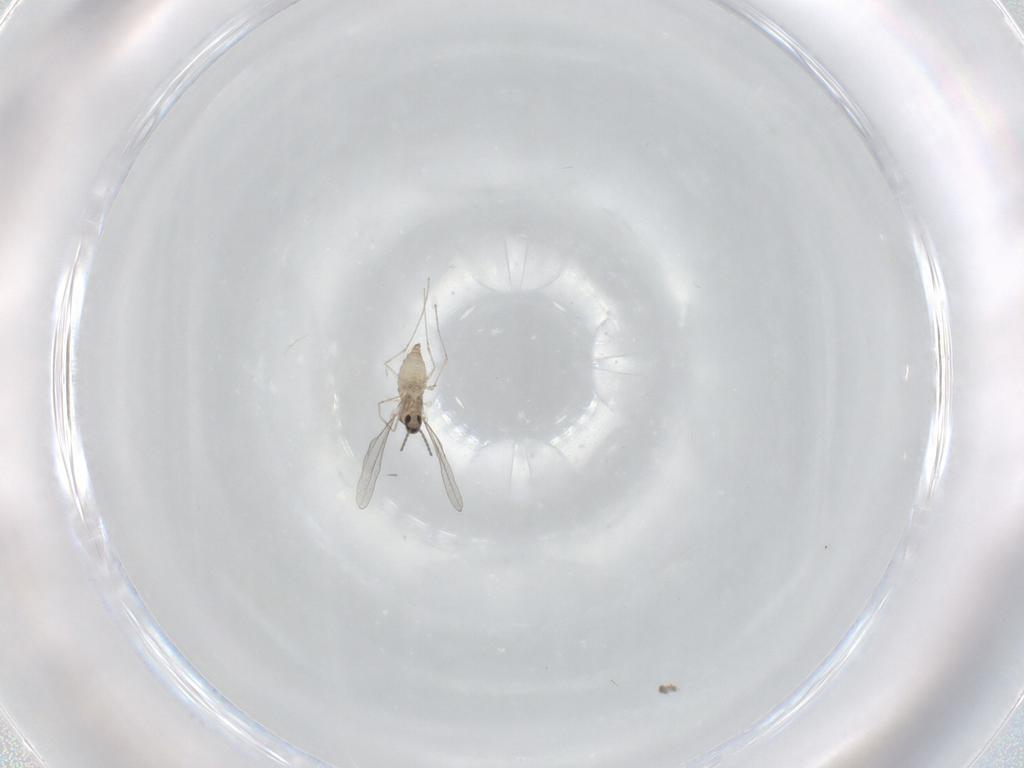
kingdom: Animalia
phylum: Arthropoda
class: Insecta
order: Diptera
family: Cecidomyiidae
